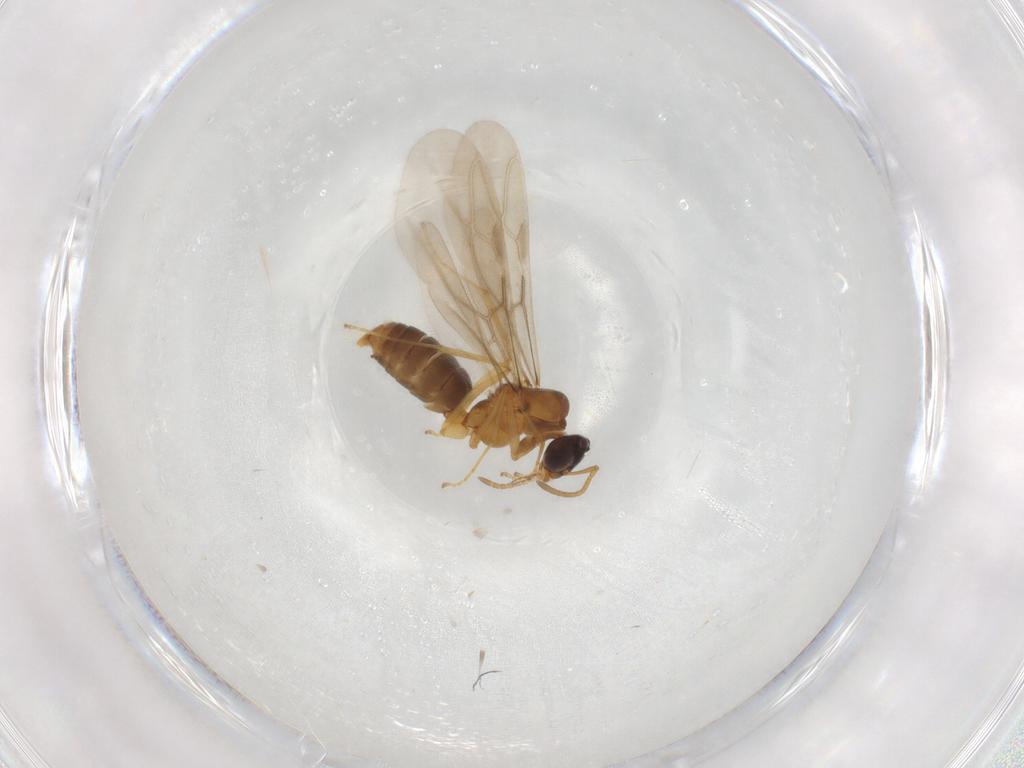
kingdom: Animalia
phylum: Arthropoda
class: Insecta
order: Hymenoptera
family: Formicidae
